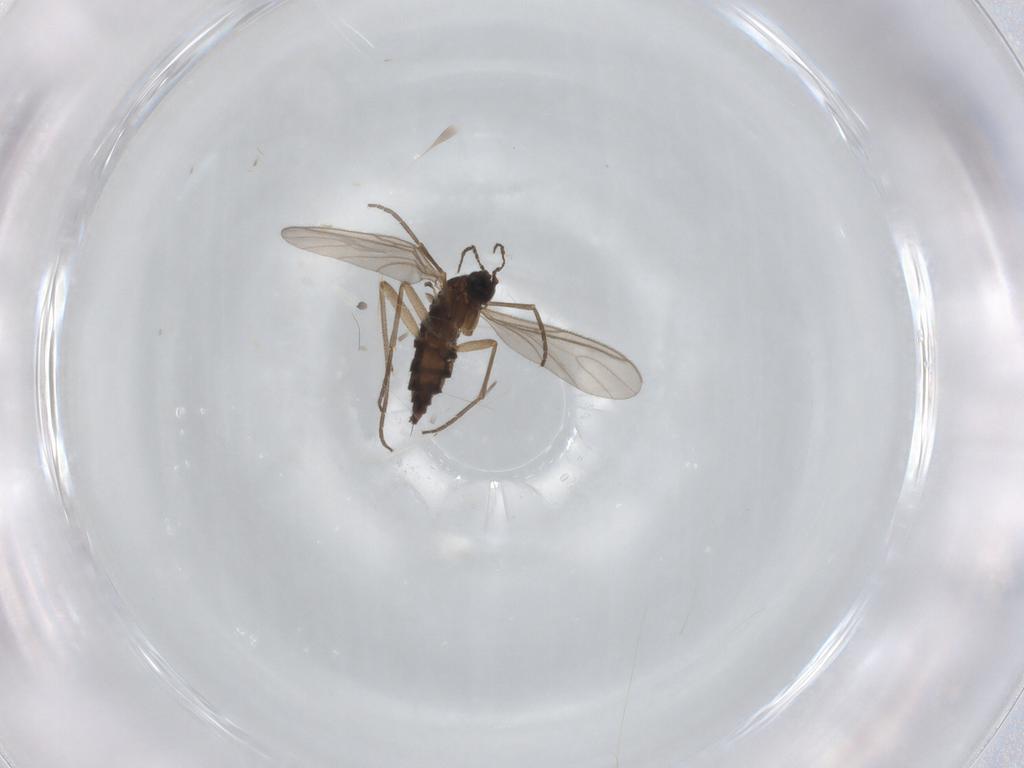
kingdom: Animalia
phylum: Arthropoda
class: Insecta
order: Diptera
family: Sciaridae
